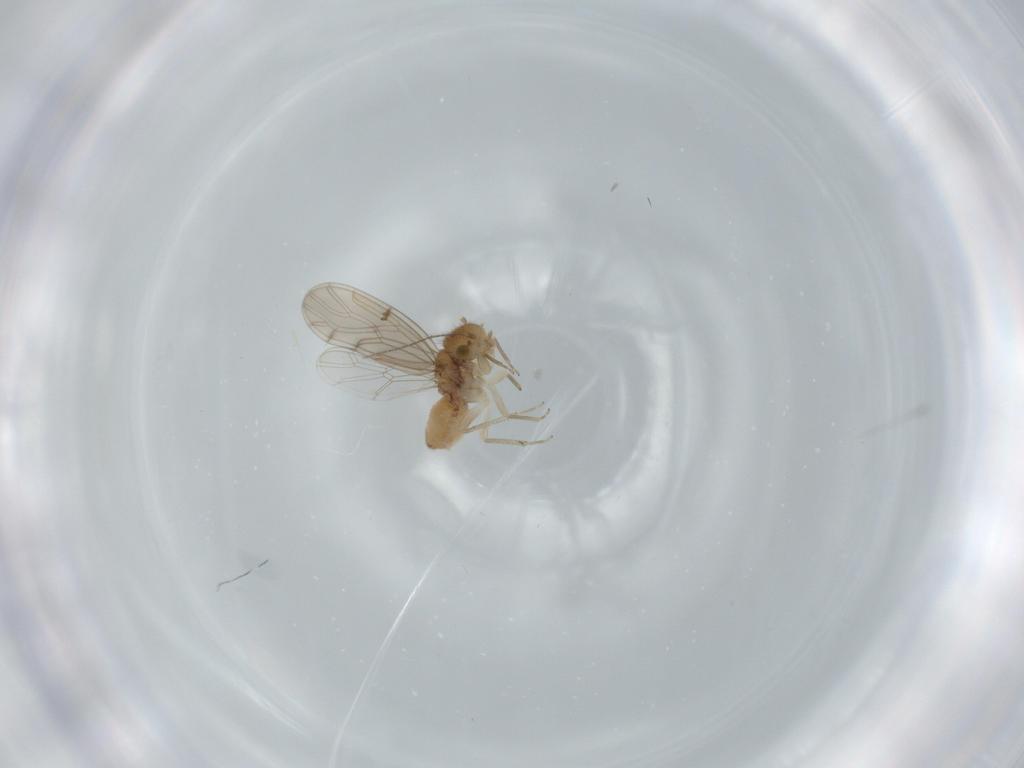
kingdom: Animalia
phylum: Arthropoda
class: Insecta
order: Psocodea
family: Ectopsocidae
